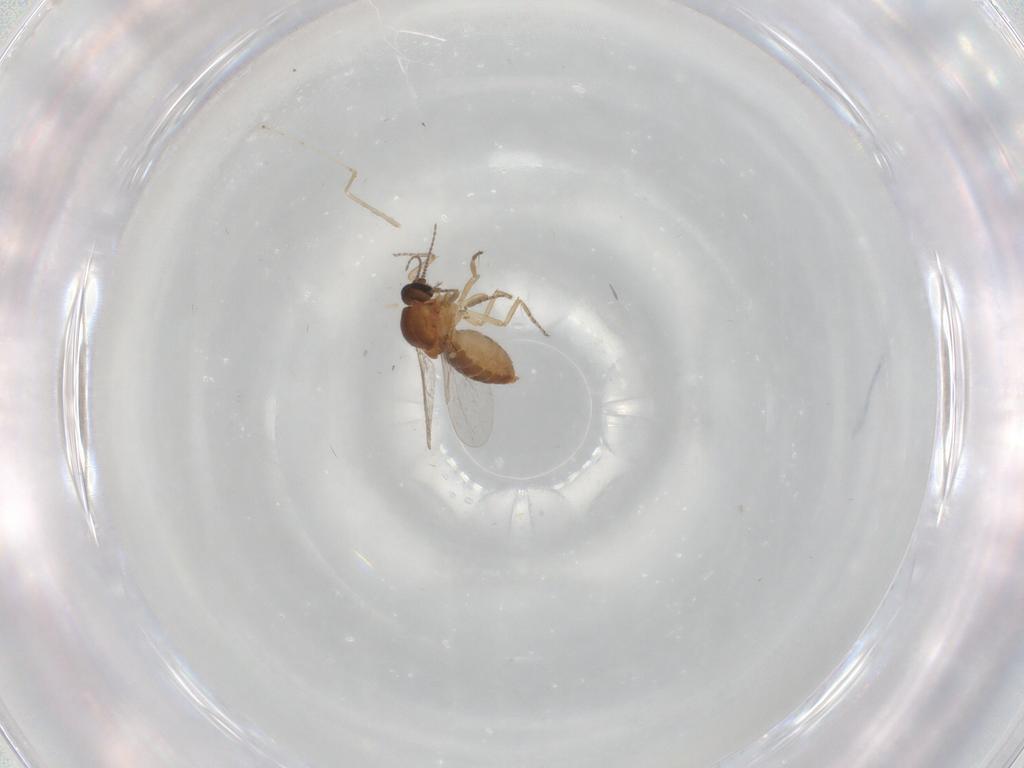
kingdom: Animalia
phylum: Arthropoda
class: Insecta
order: Diptera
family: Ceratopogonidae
